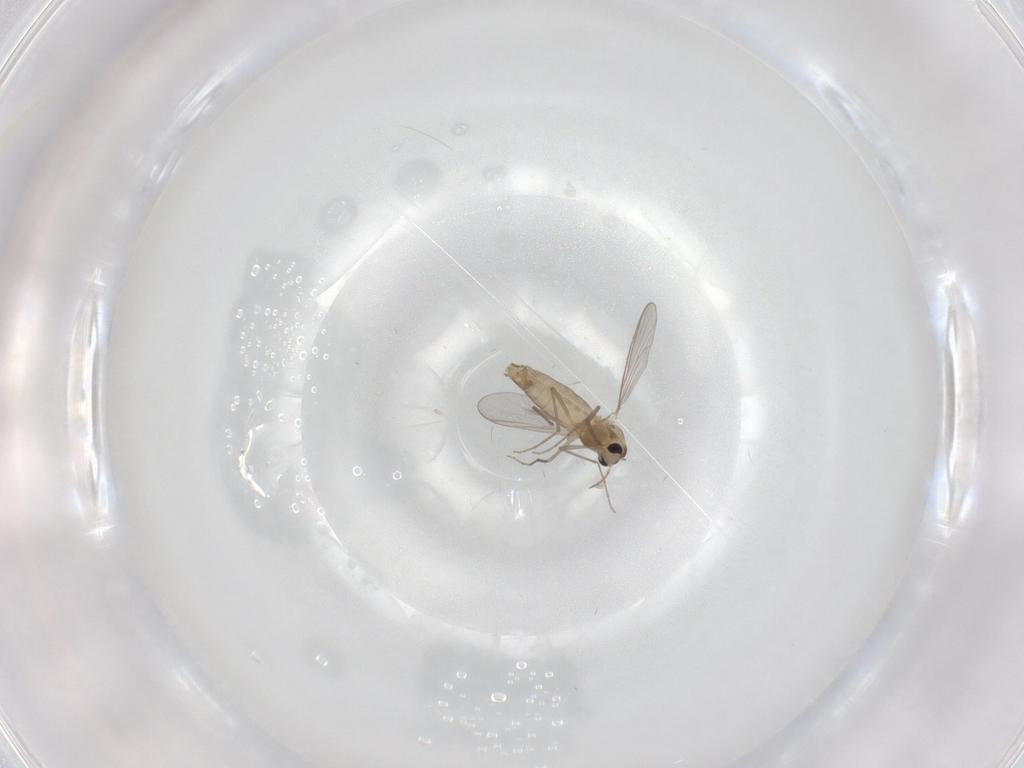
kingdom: Animalia
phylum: Arthropoda
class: Insecta
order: Diptera
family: Chironomidae
